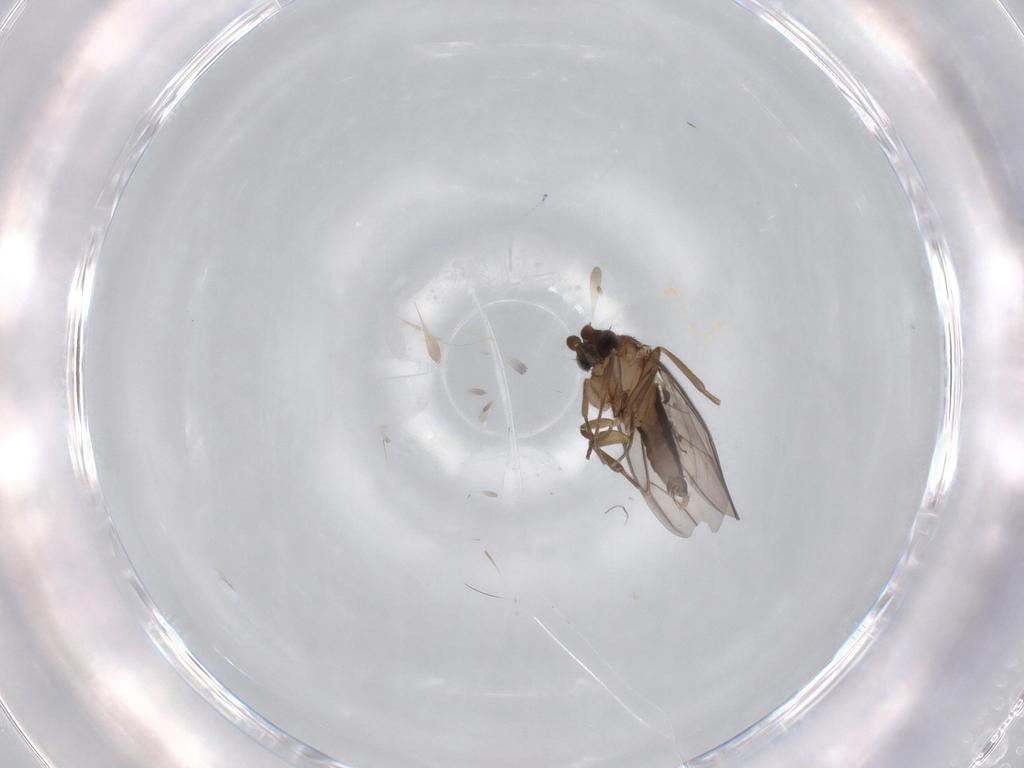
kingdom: Animalia
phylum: Arthropoda
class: Insecta
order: Diptera
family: Phoridae
